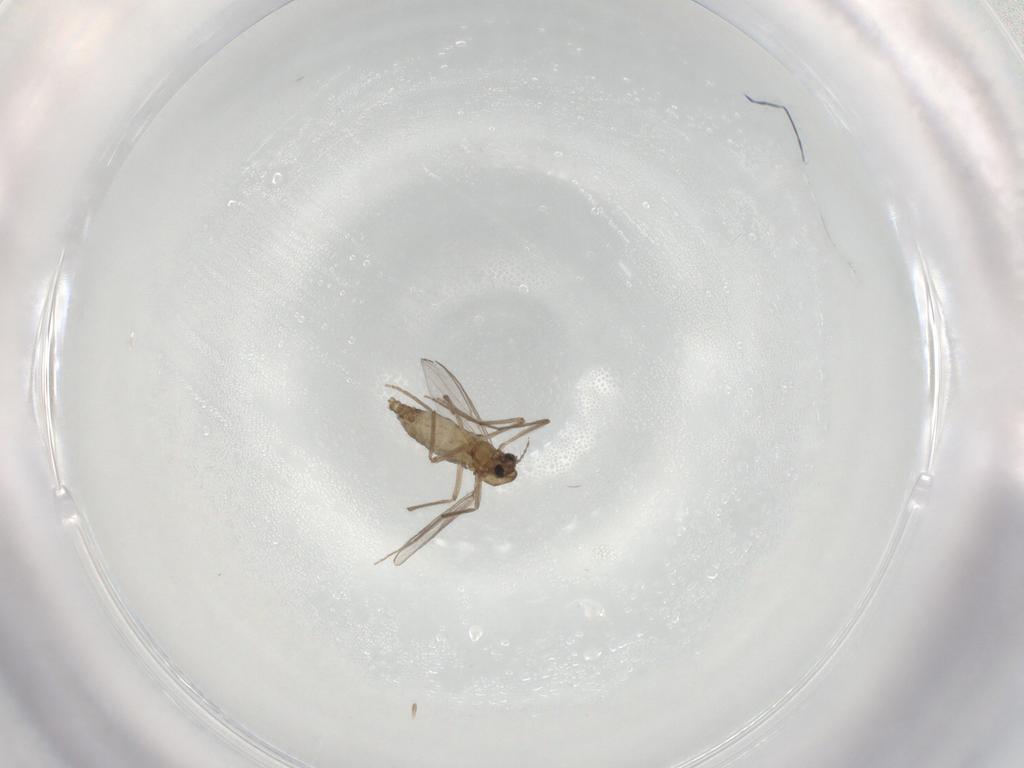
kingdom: Animalia
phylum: Arthropoda
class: Insecta
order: Diptera
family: Chironomidae
